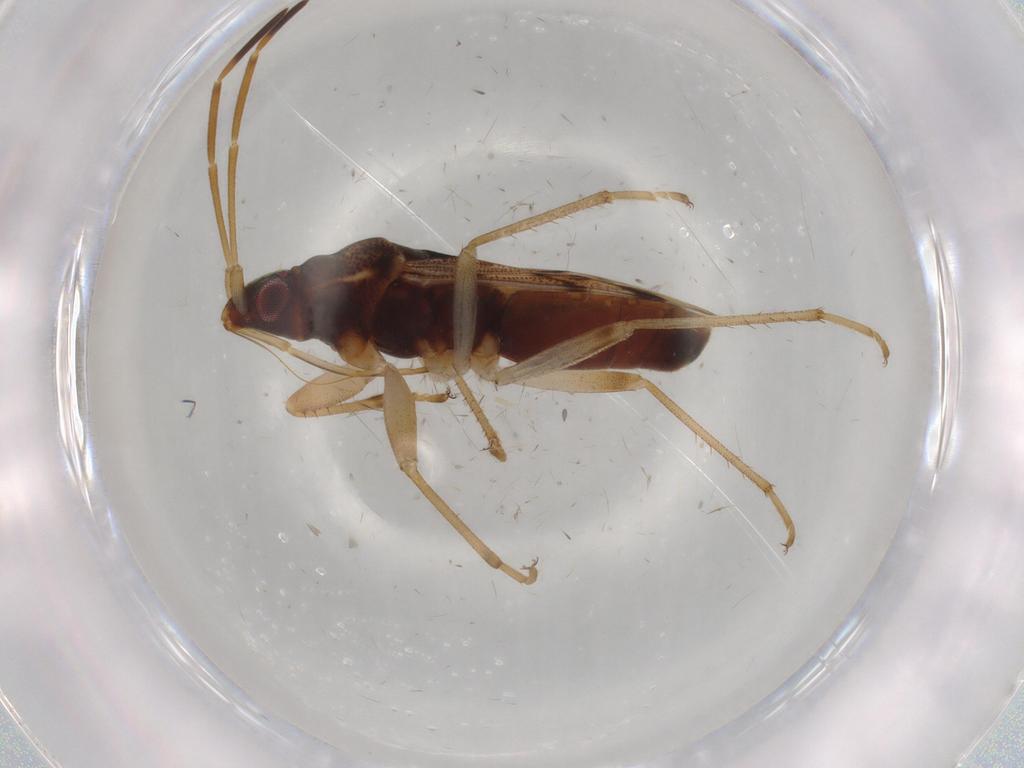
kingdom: Animalia
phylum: Arthropoda
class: Insecta
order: Hemiptera
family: Rhyparochromidae
